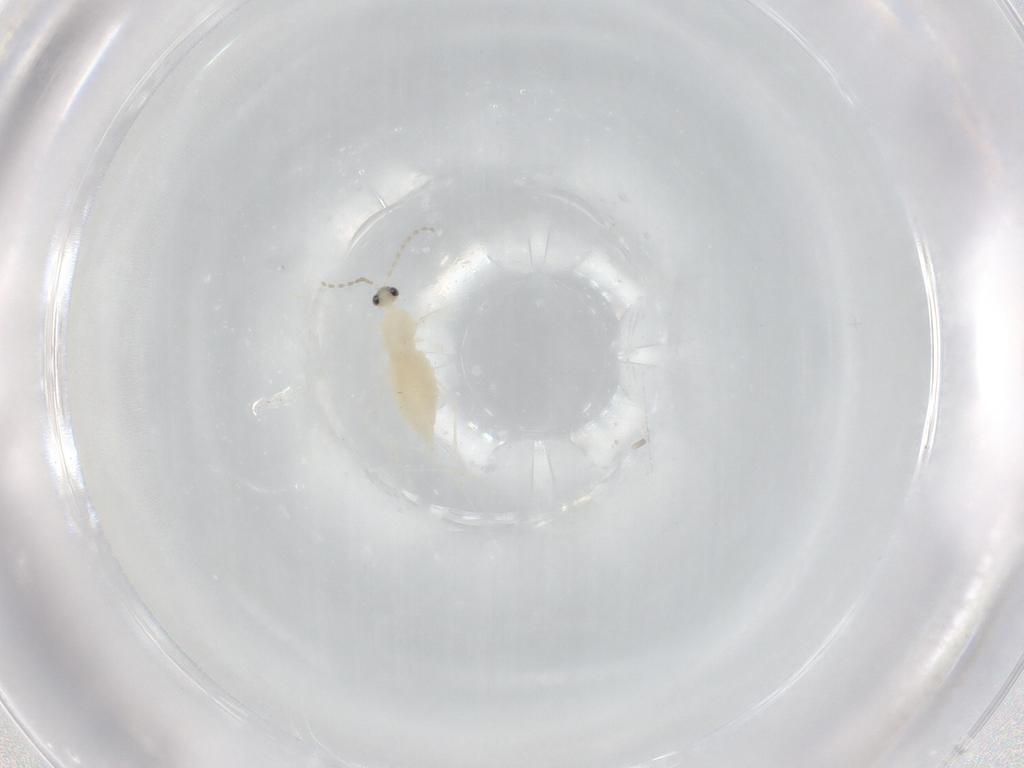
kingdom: Animalia
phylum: Arthropoda
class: Insecta
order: Diptera
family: Cecidomyiidae
